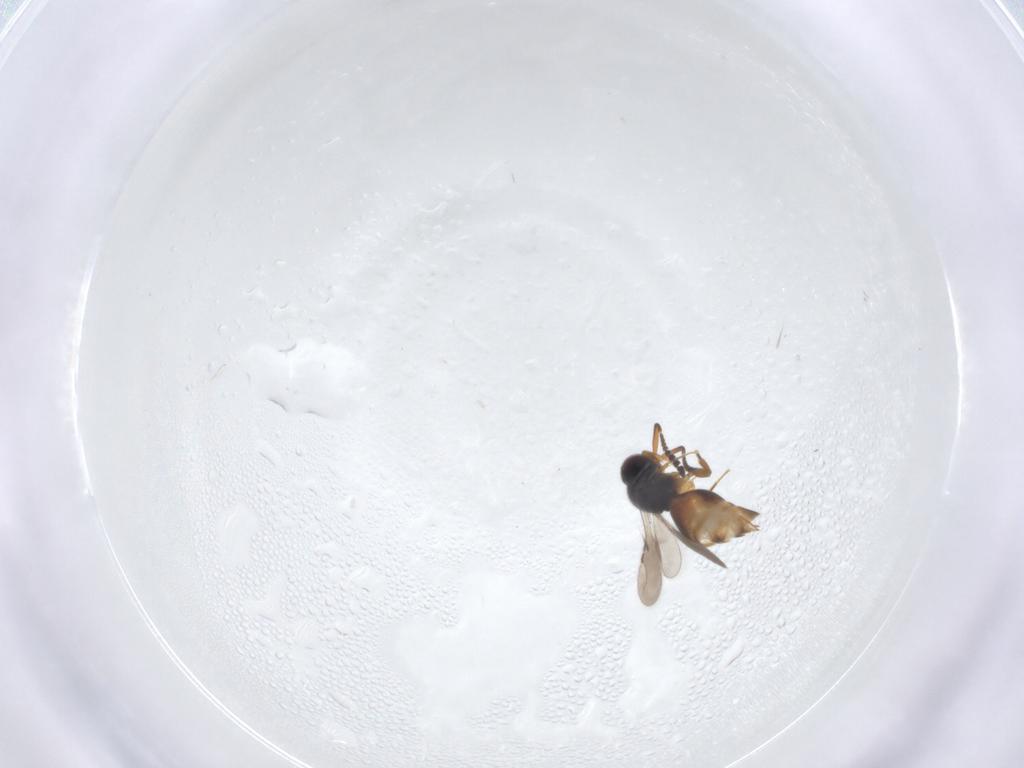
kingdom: Animalia
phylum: Arthropoda
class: Insecta
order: Hymenoptera
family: Ceraphronidae
